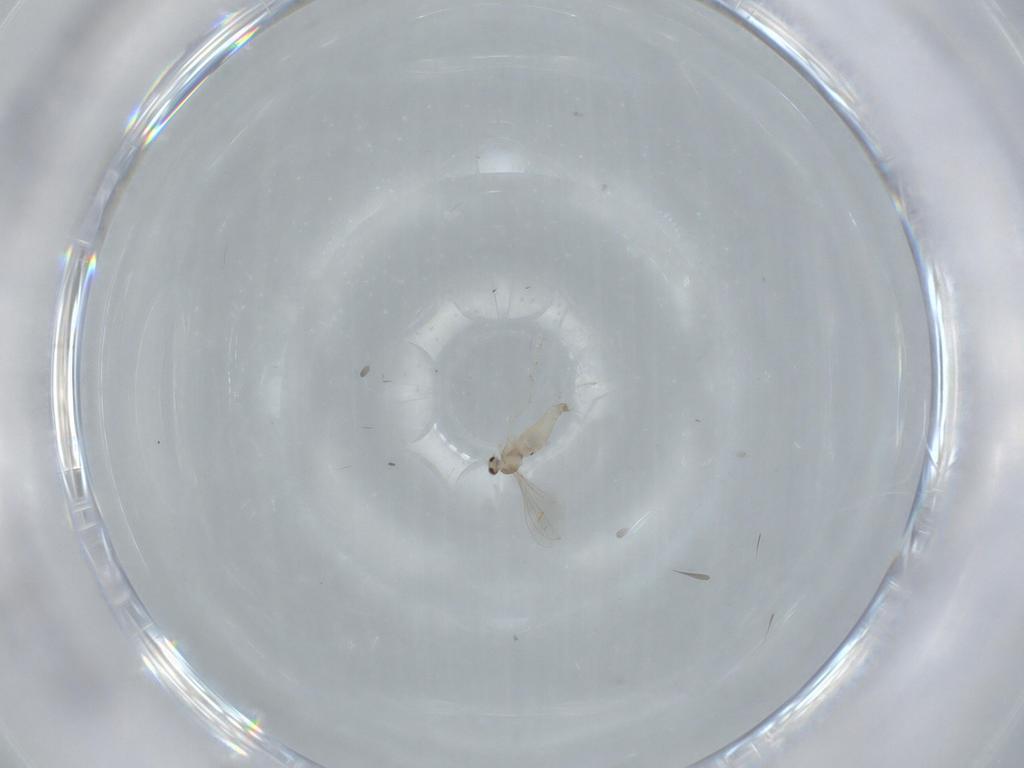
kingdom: Animalia
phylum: Arthropoda
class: Insecta
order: Diptera
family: Cecidomyiidae
